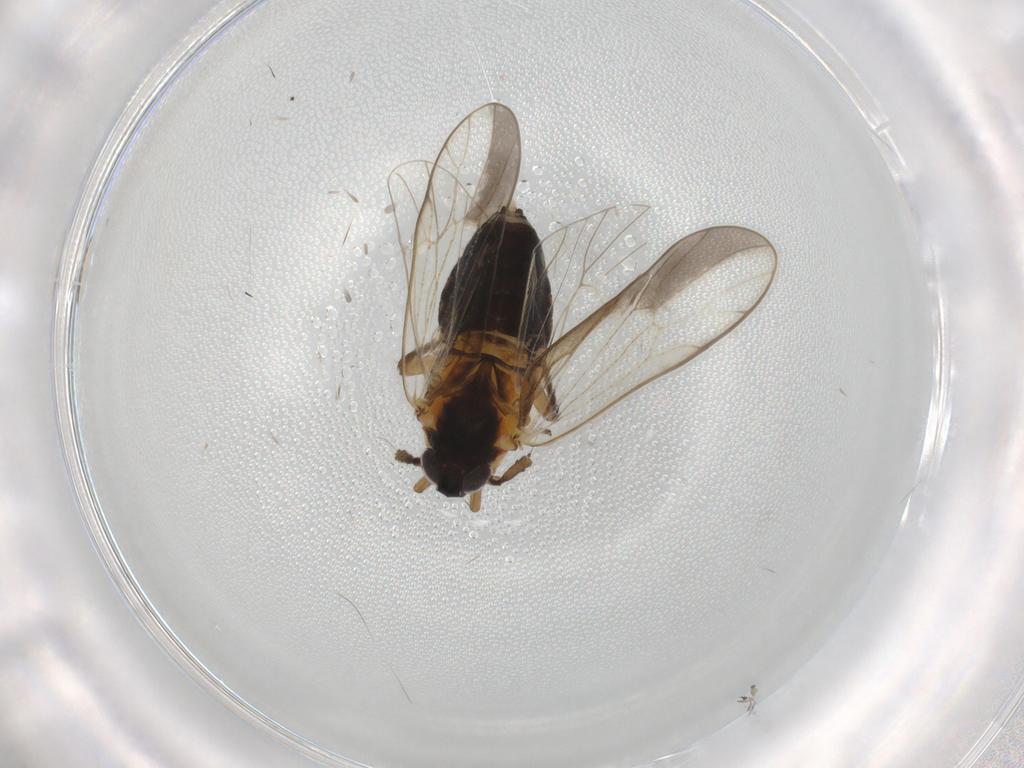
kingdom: Animalia
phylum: Arthropoda
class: Insecta
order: Hemiptera
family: Delphacidae
